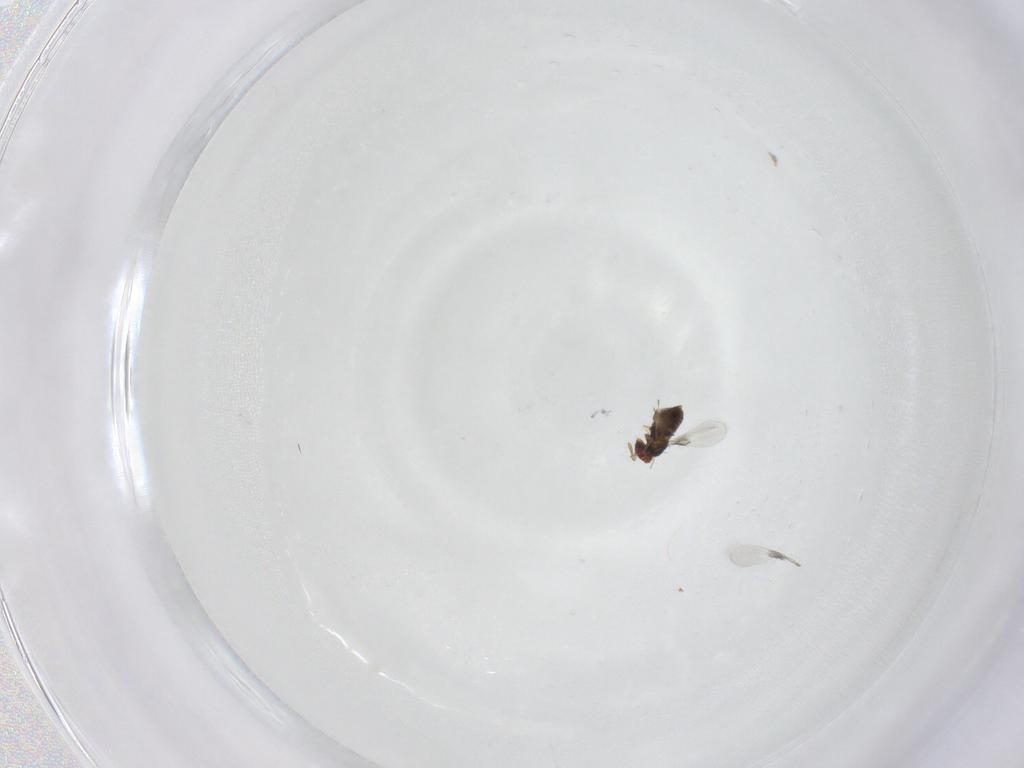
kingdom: Animalia
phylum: Arthropoda
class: Insecta
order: Hymenoptera
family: Trichogrammatidae
